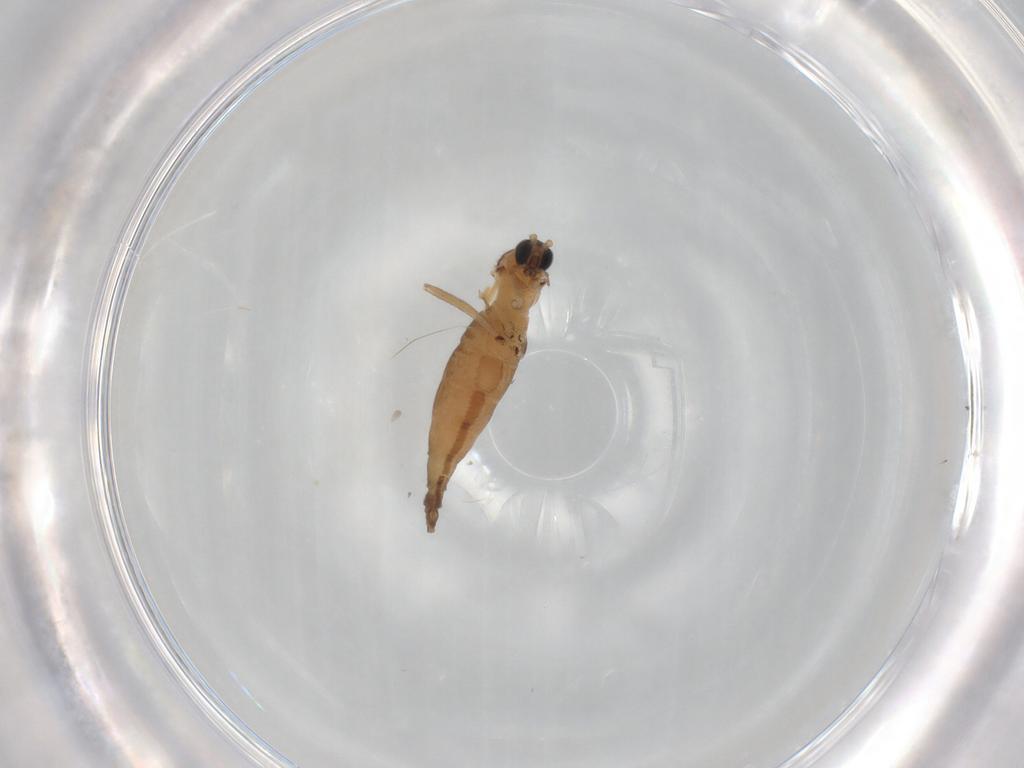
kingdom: Animalia
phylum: Arthropoda
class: Insecta
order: Diptera
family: Sciaridae
